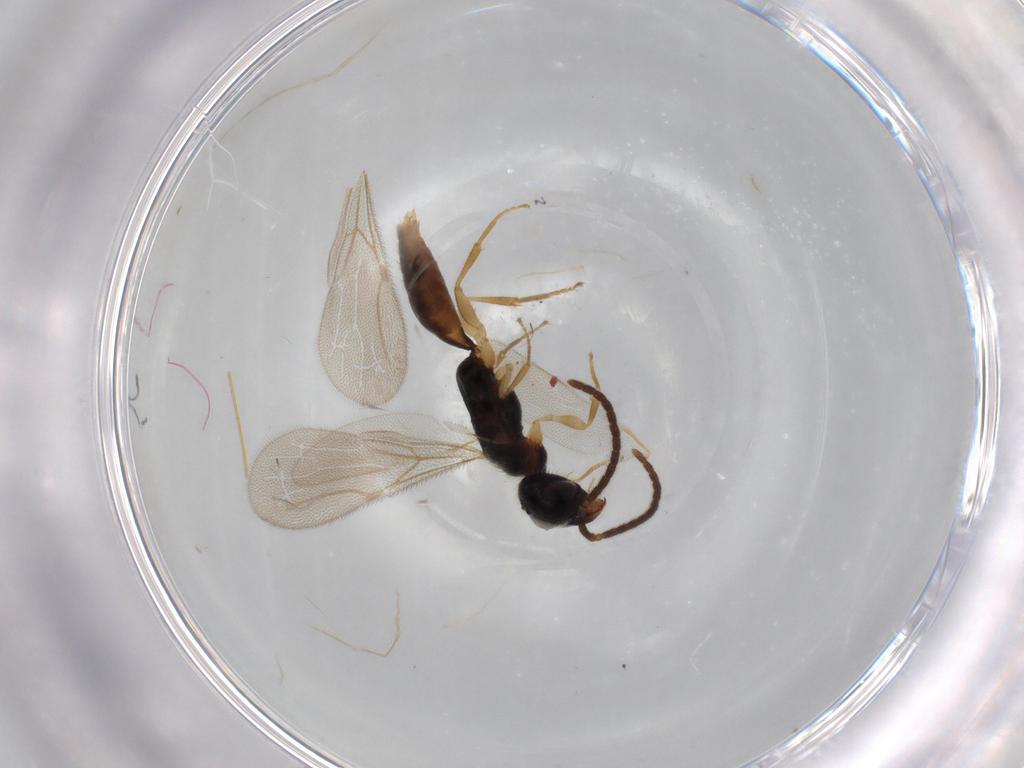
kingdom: Animalia
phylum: Arthropoda
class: Insecta
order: Hymenoptera
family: Bethylidae
